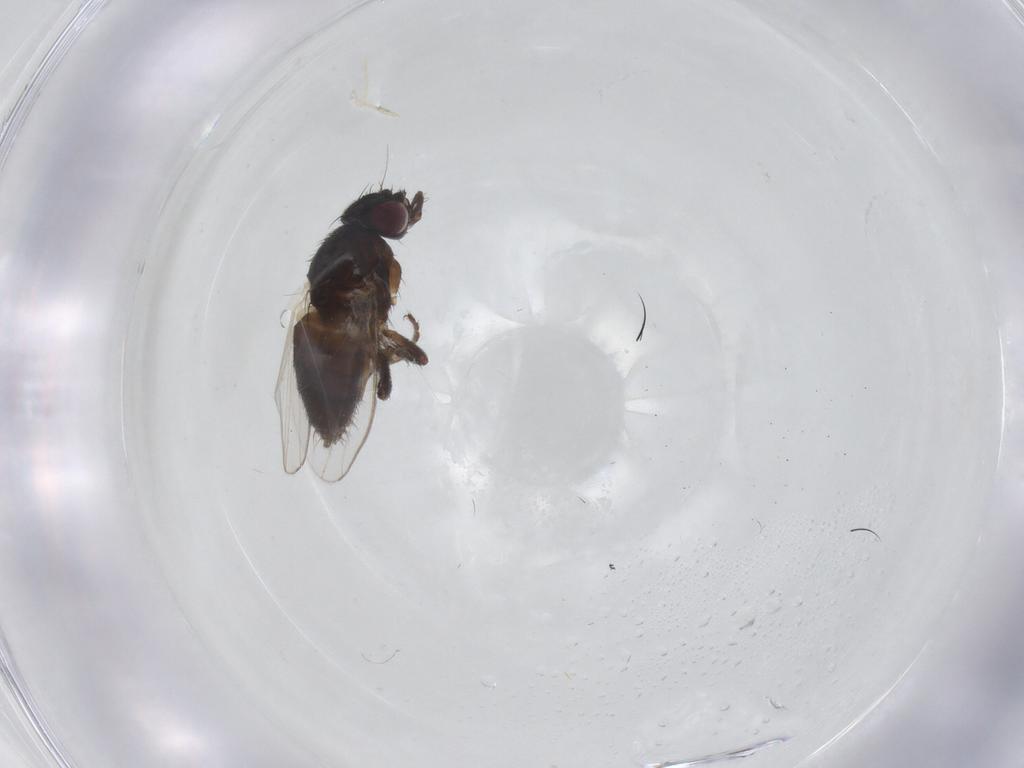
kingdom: Animalia
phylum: Arthropoda
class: Insecta
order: Diptera
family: Milichiidae
